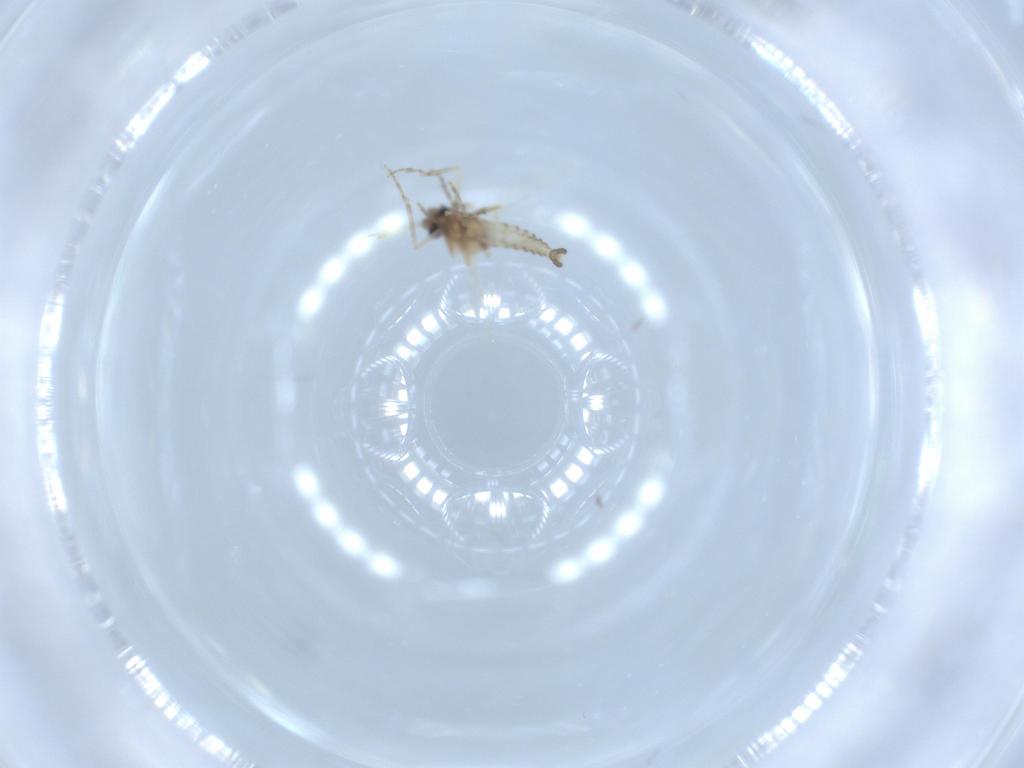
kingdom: Animalia
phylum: Arthropoda
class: Insecta
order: Diptera
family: Ceratopogonidae
